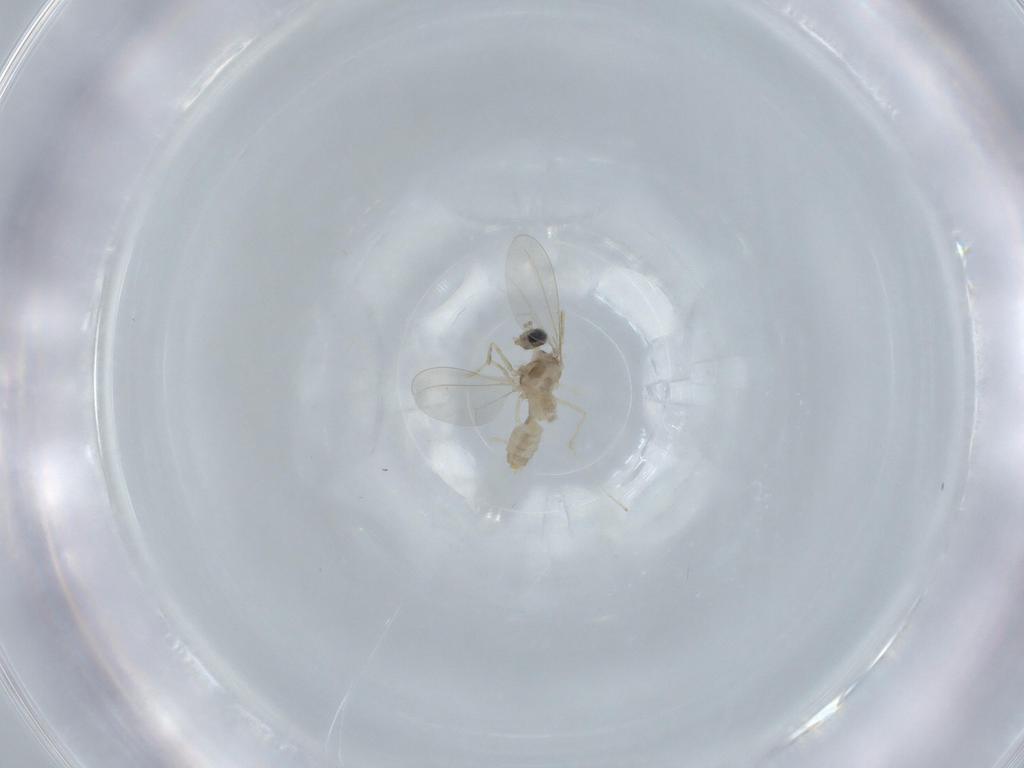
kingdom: Animalia
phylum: Arthropoda
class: Insecta
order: Diptera
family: Cecidomyiidae
